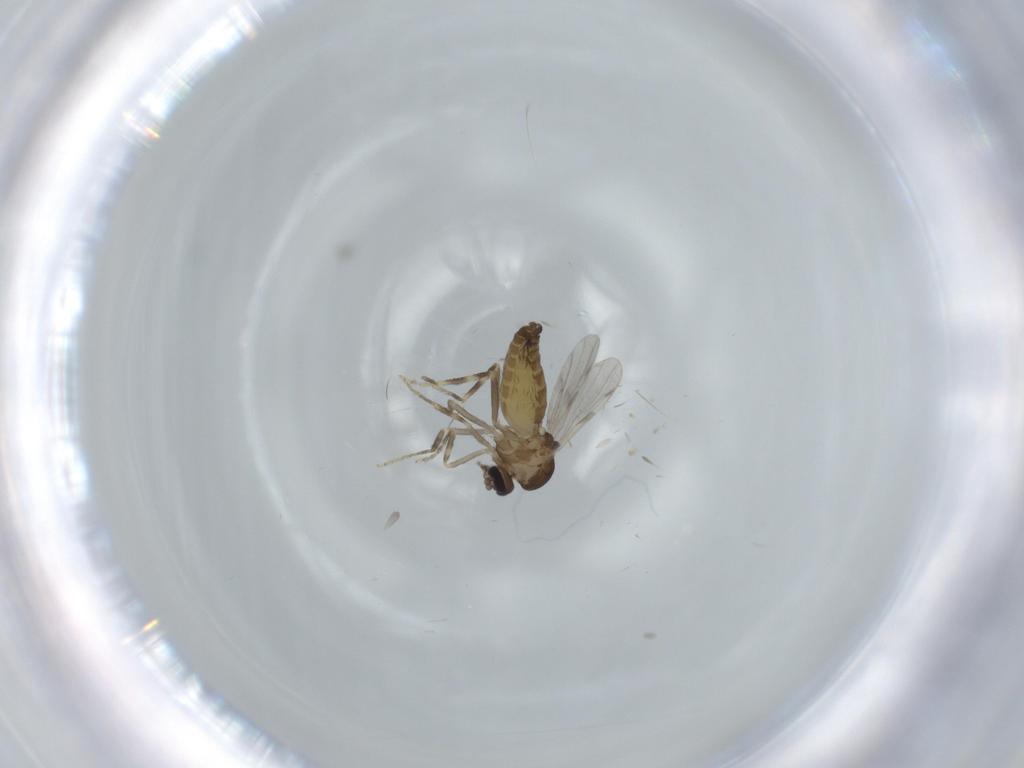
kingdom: Animalia
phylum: Arthropoda
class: Insecta
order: Diptera
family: Ceratopogonidae
